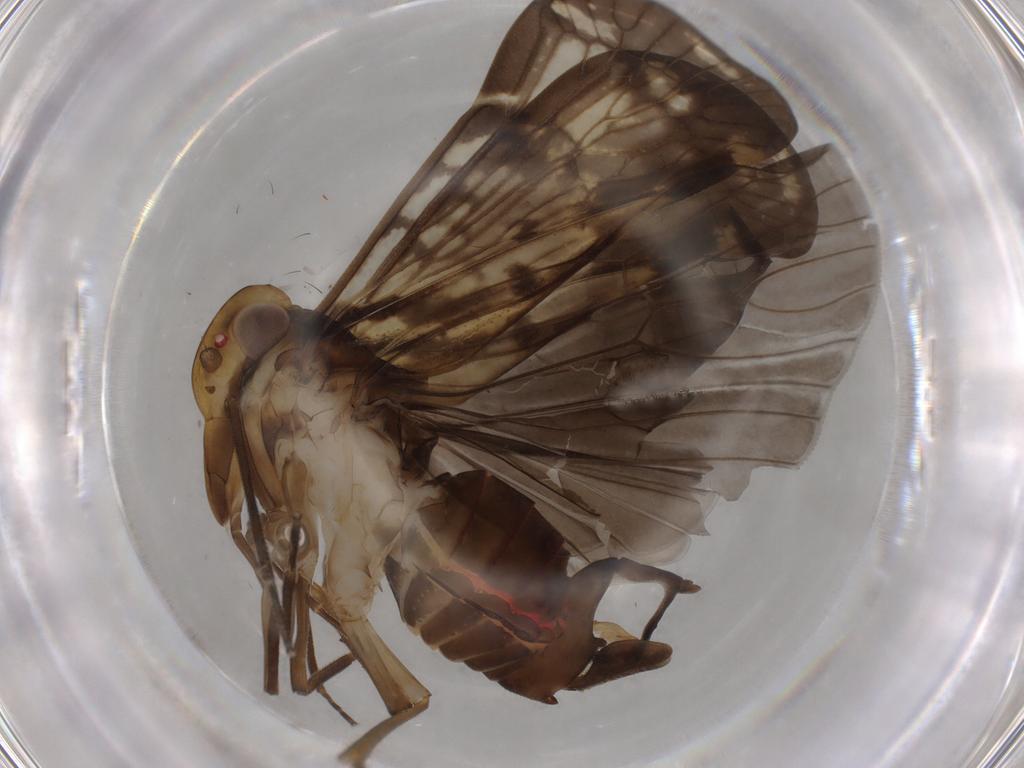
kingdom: Animalia
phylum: Arthropoda
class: Insecta
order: Hemiptera
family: Cixiidae
